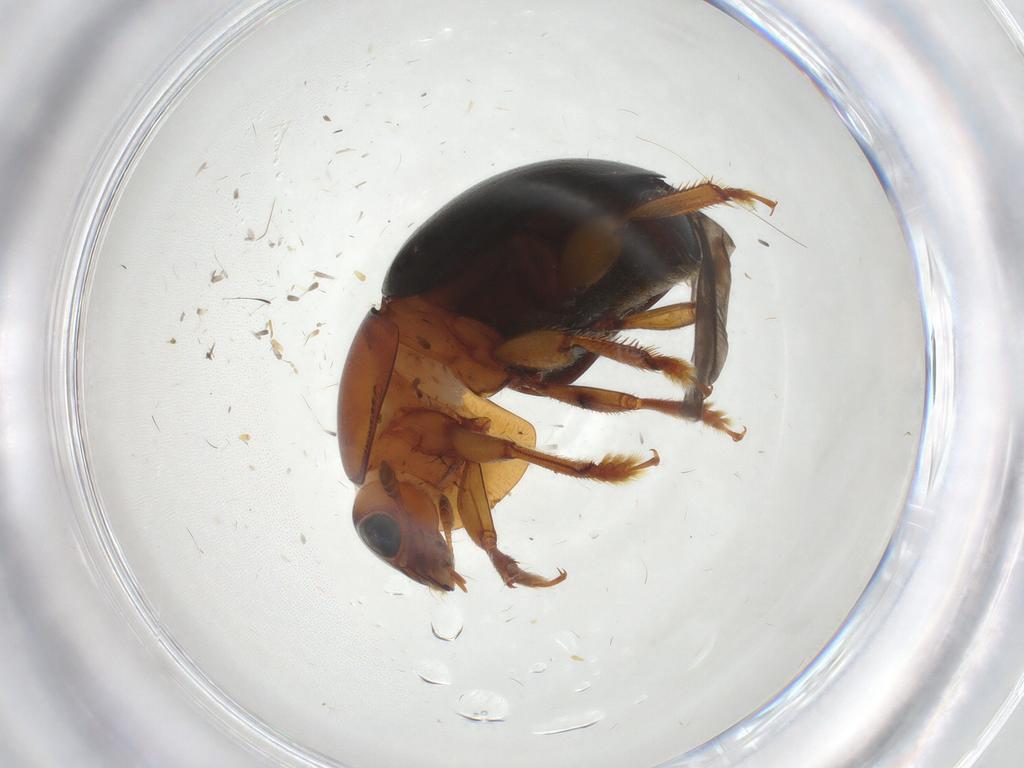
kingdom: Animalia
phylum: Arthropoda
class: Insecta
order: Coleoptera
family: Nitidulidae
